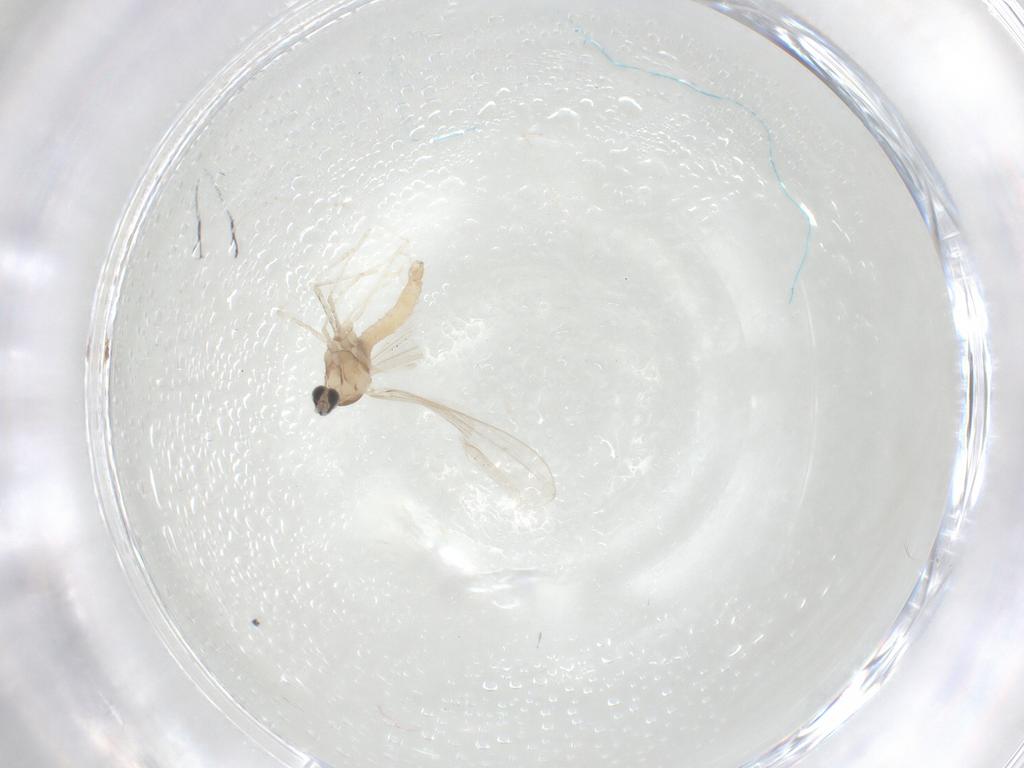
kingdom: Animalia
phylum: Arthropoda
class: Insecta
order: Diptera
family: Cecidomyiidae
